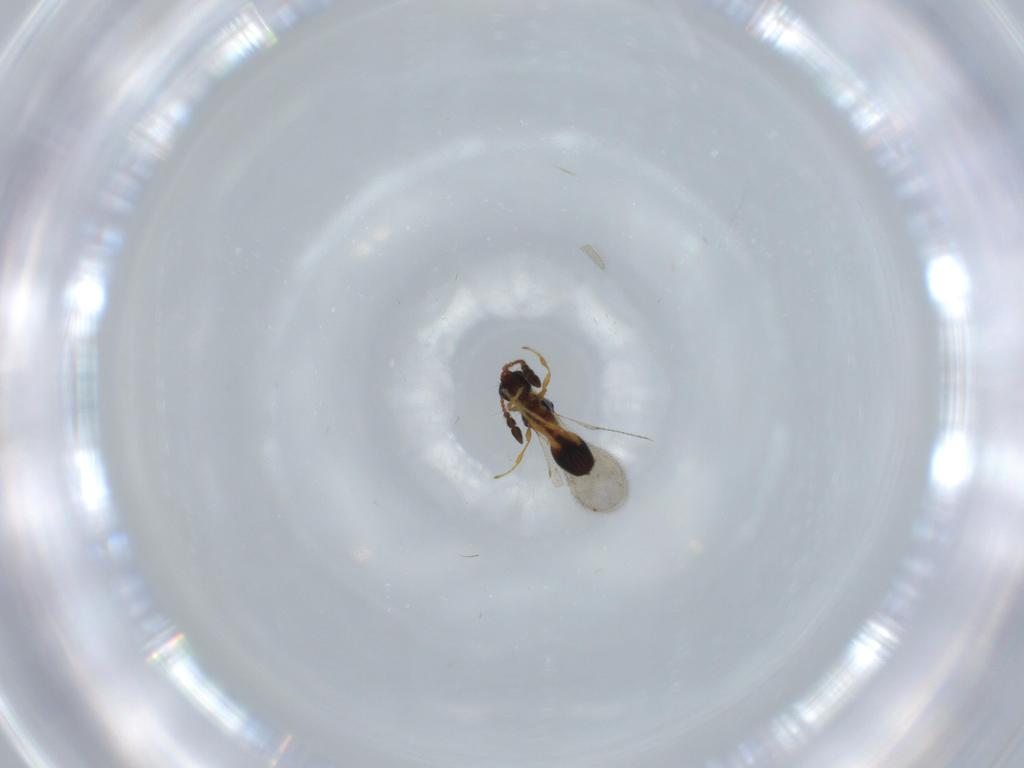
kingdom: Animalia
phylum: Arthropoda
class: Insecta
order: Hymenoptera
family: Diapriidae
